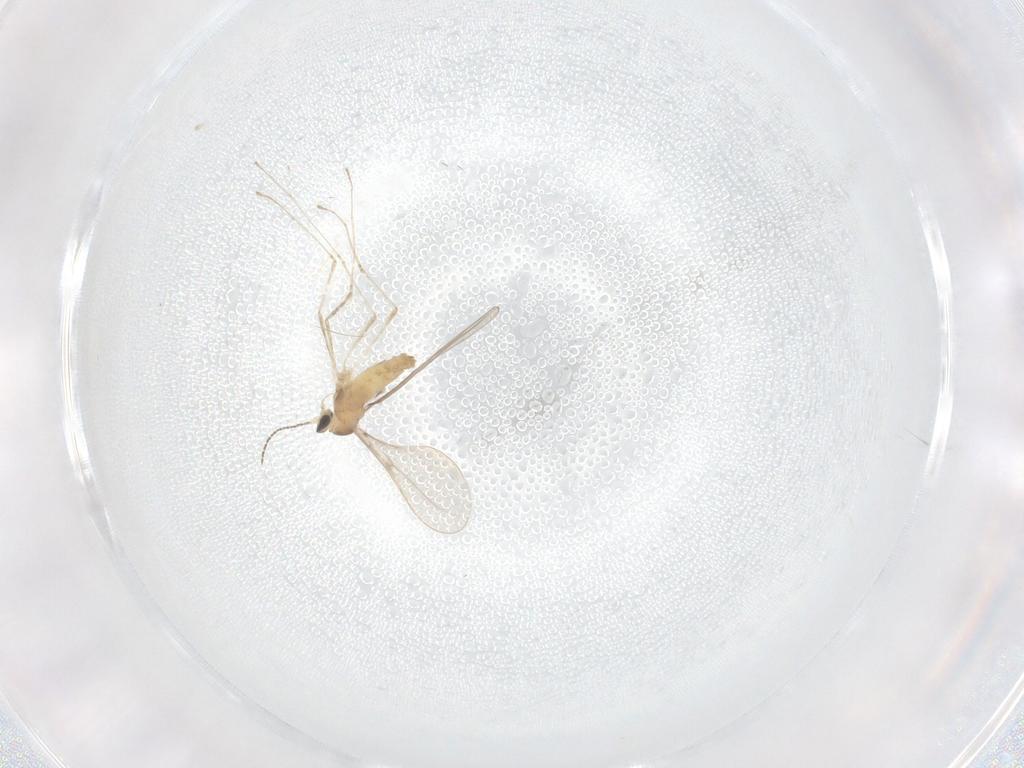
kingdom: Animalia
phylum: Arthropoda
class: Insecta
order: Diptera
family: Cecidomyiidae
